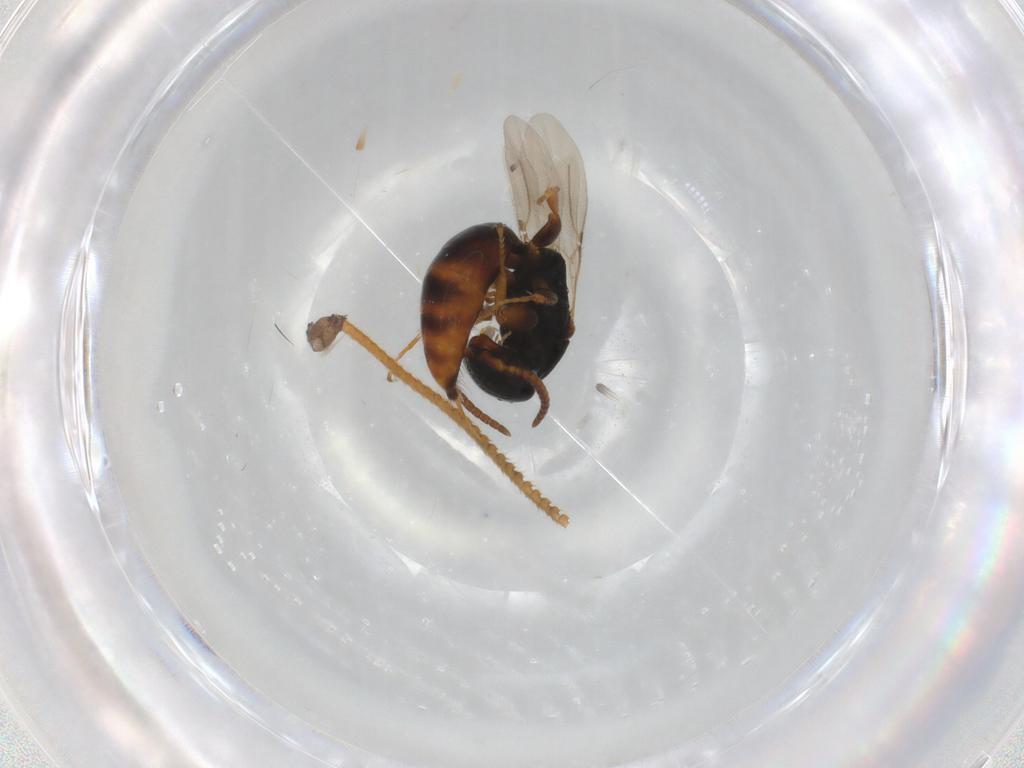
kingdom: Animalia
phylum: Arthropoda
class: Insecta
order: Hymenoptera
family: Bethylidae
